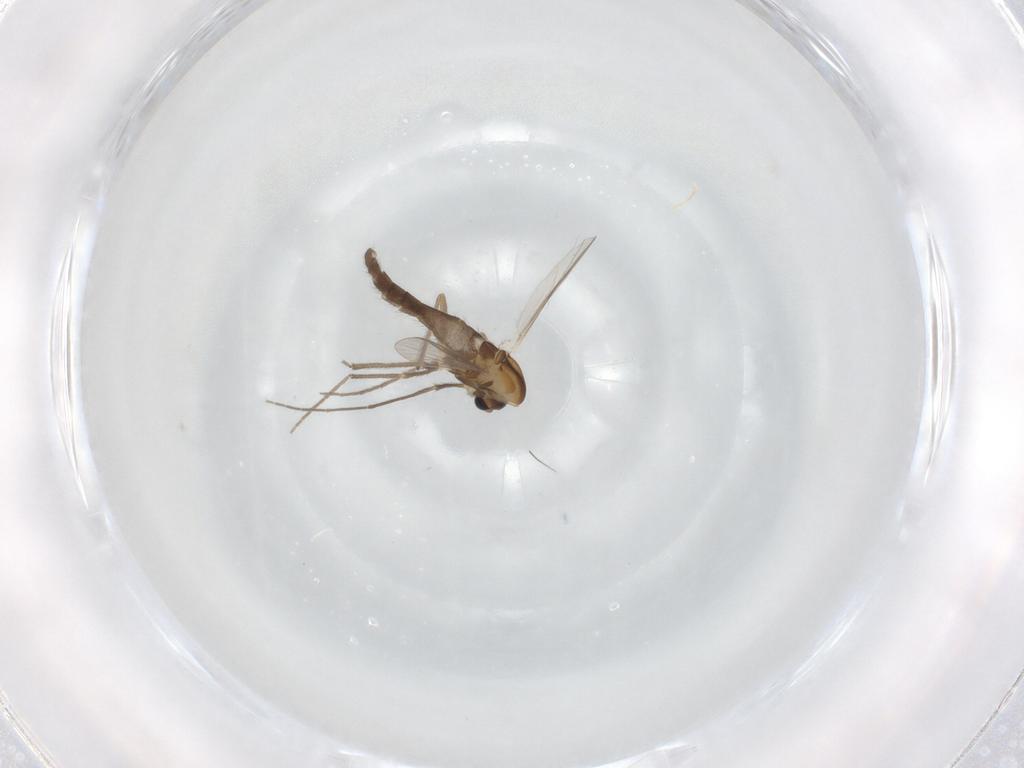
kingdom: Animalia
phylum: Arthropoda
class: Insecta
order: Diptera
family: Chironomidae
